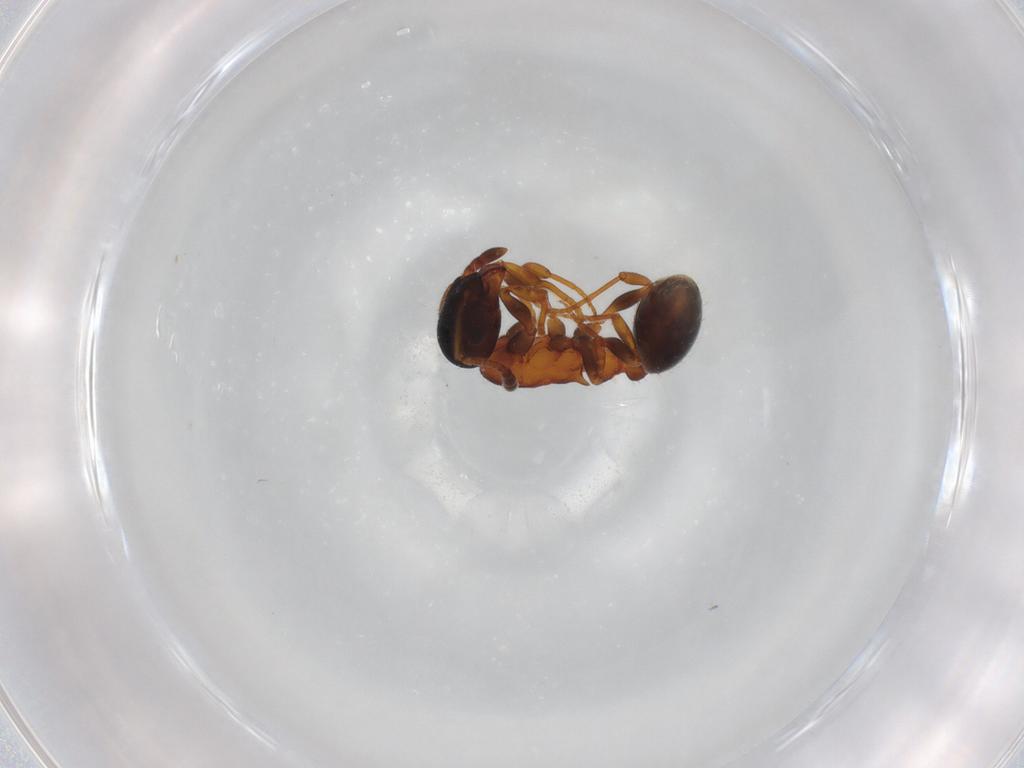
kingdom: Animalia
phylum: Arthropoda
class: Insecta
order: Hymenoptera
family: Formicidae
